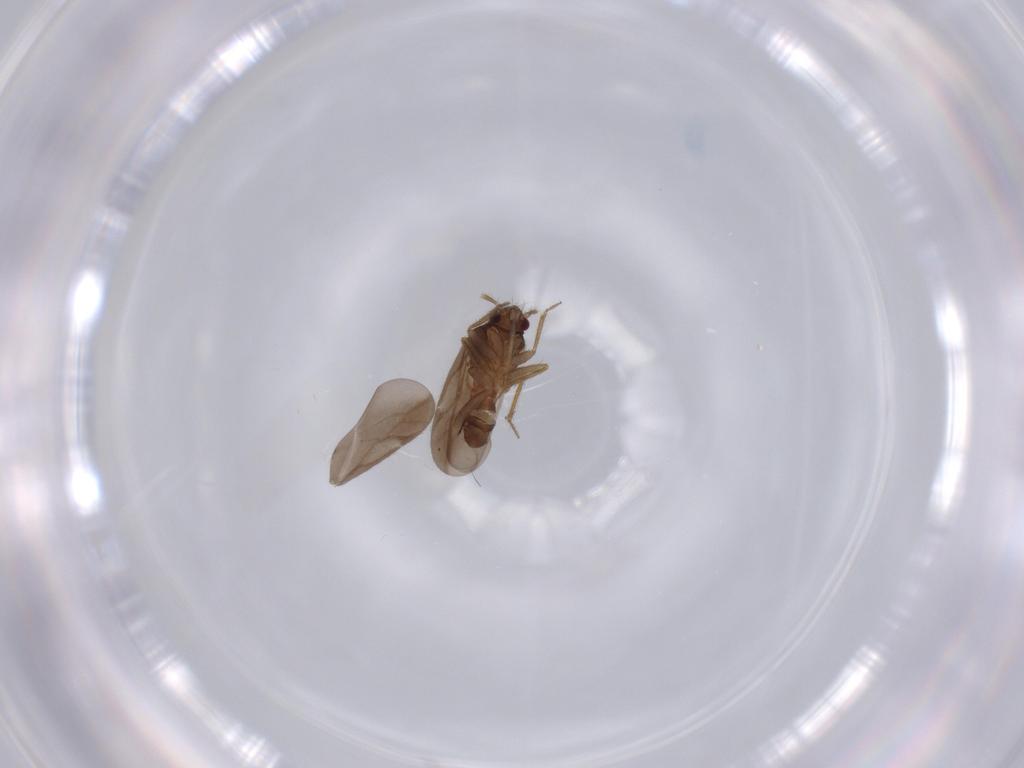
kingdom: Animalia
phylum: Arthropoda
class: Insecta
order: Hemiptera
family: Ceratocombidae
